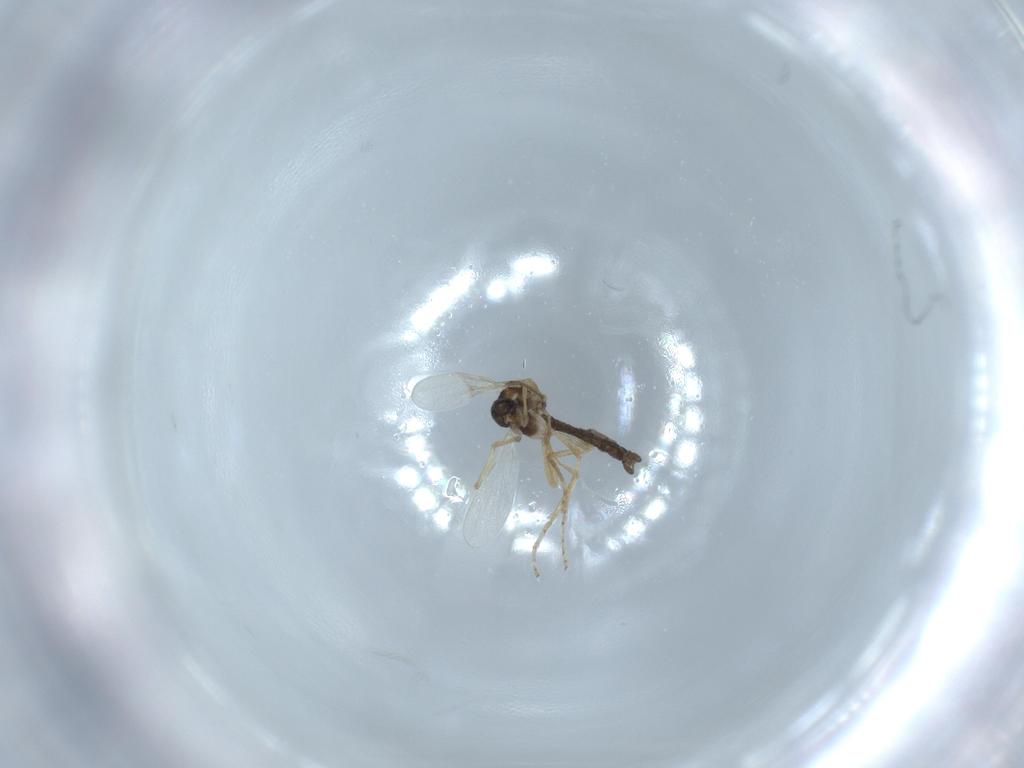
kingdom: Animalia
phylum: Arthropoda
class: Insecta
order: Diptera
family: Ceratopogonidae
